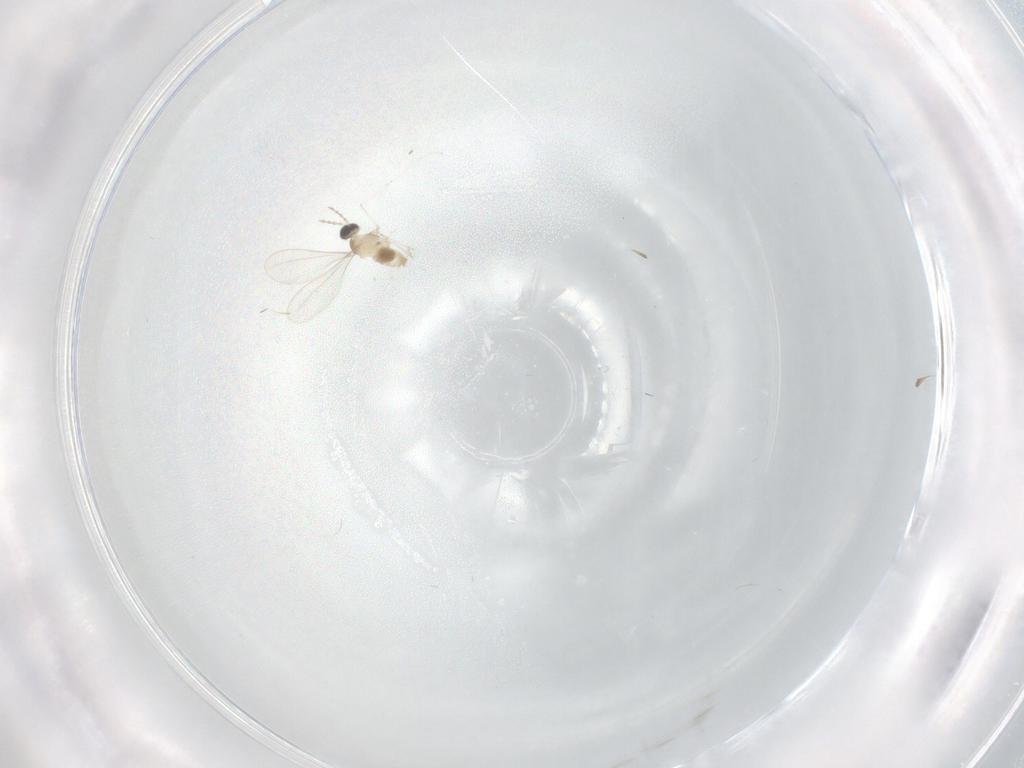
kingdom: Animalia
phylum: Arthropoda
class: Insecta
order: Diptera
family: Cecidomyiidae
